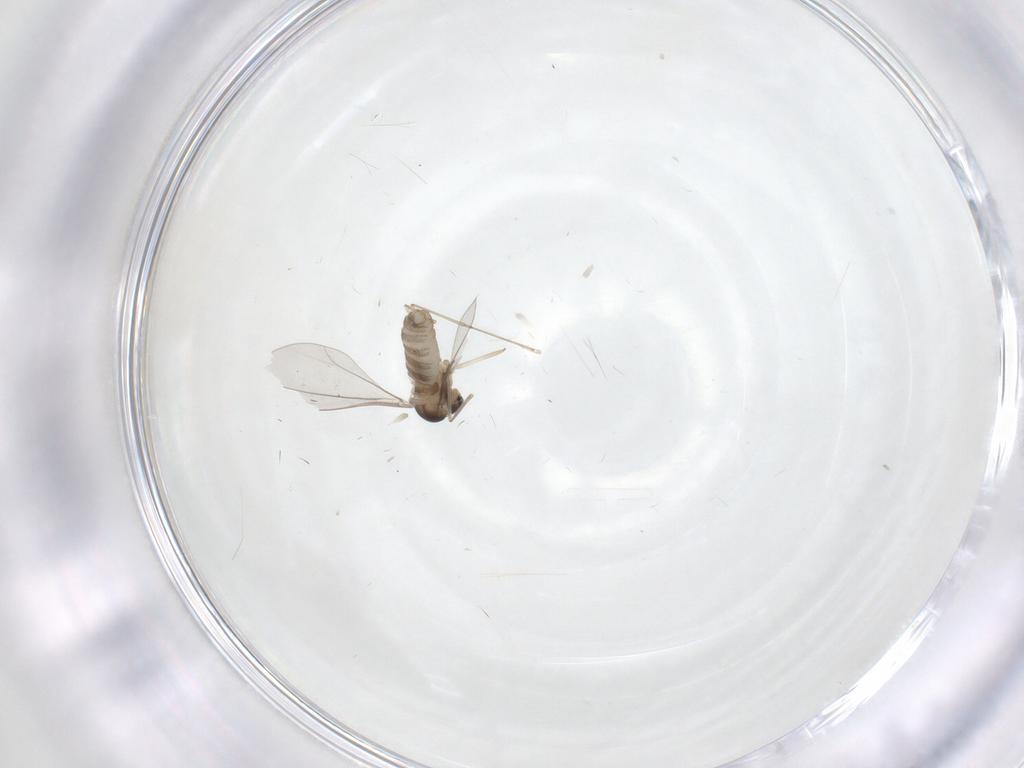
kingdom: Animalia
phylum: Arthropoda
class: Insecta
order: Diptera
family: Cecidomyiidae
